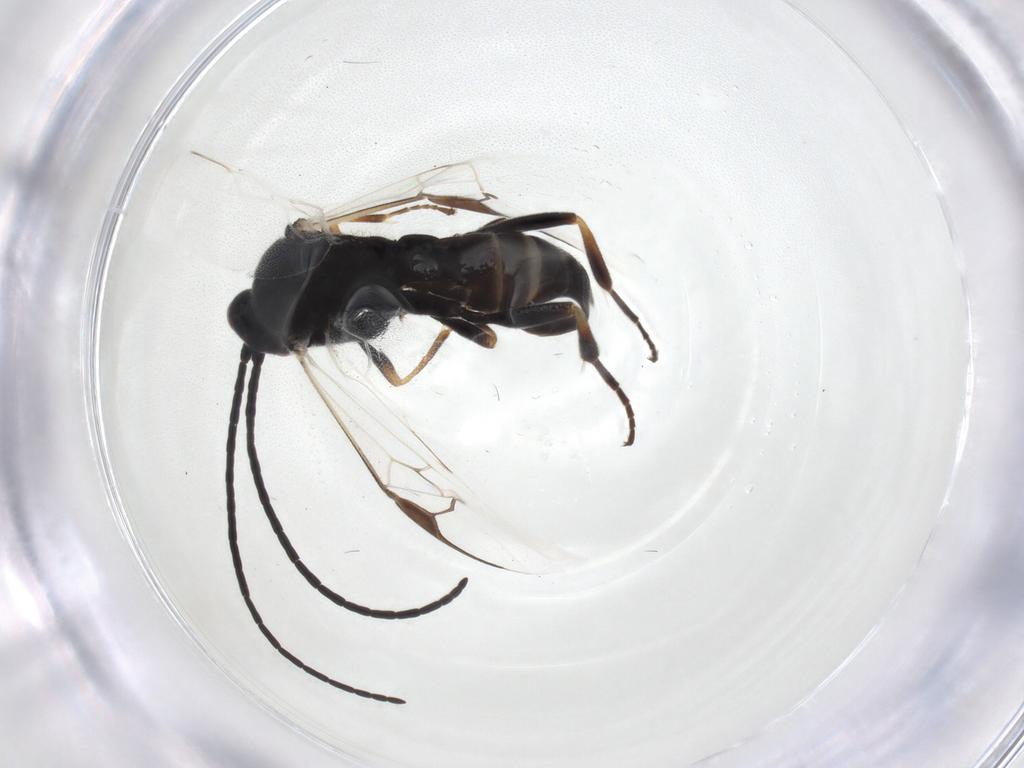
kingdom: Animalia
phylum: Arthropoda
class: Insecta
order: Hymenoptera
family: Braconidae
